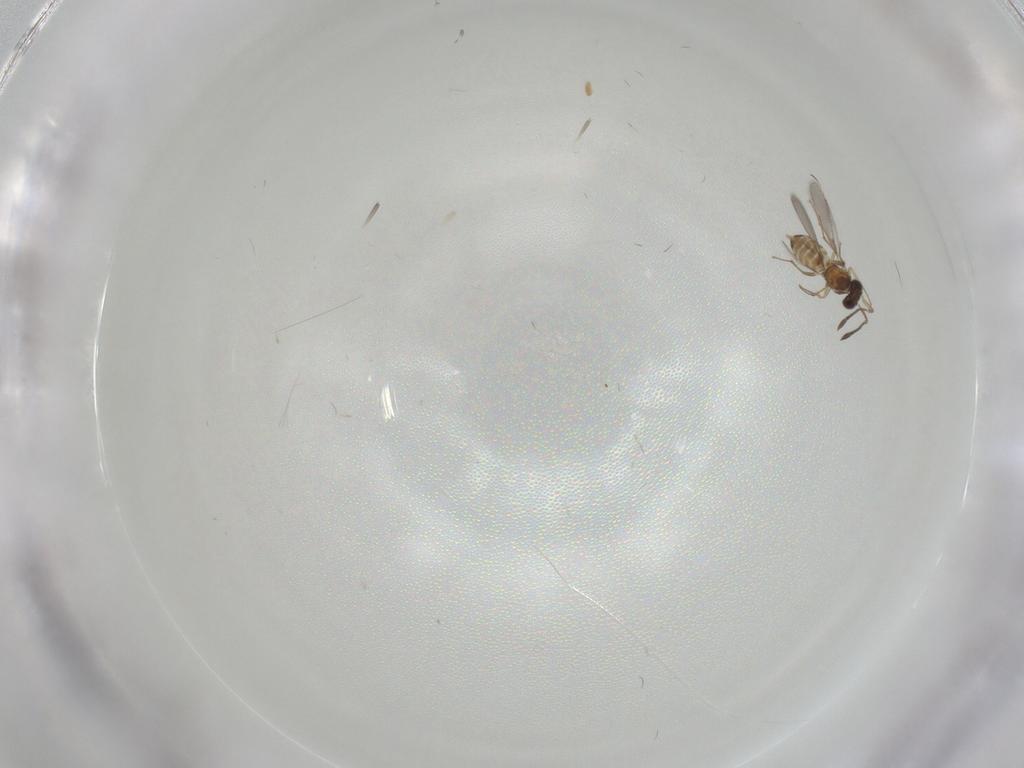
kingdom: Animalia
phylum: Arthropoda
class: Insecta
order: Hymenoptera
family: Mymaridae
